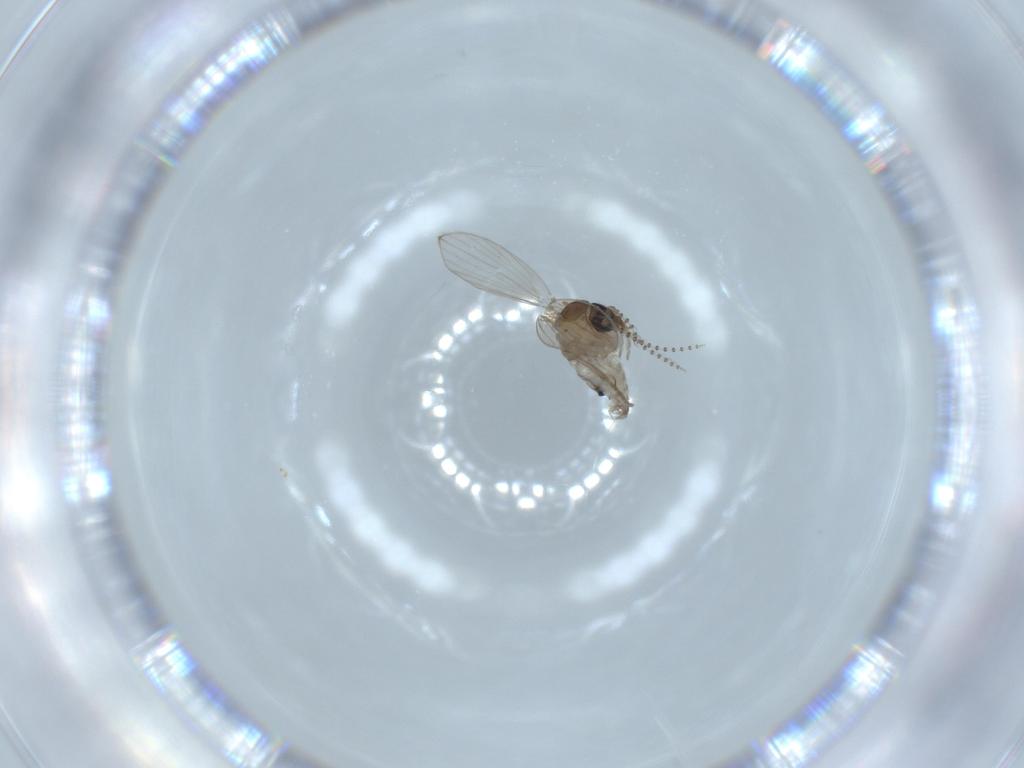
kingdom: Animalia
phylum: Arthropoda
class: Insecta
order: Diptera
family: Psychodidae
